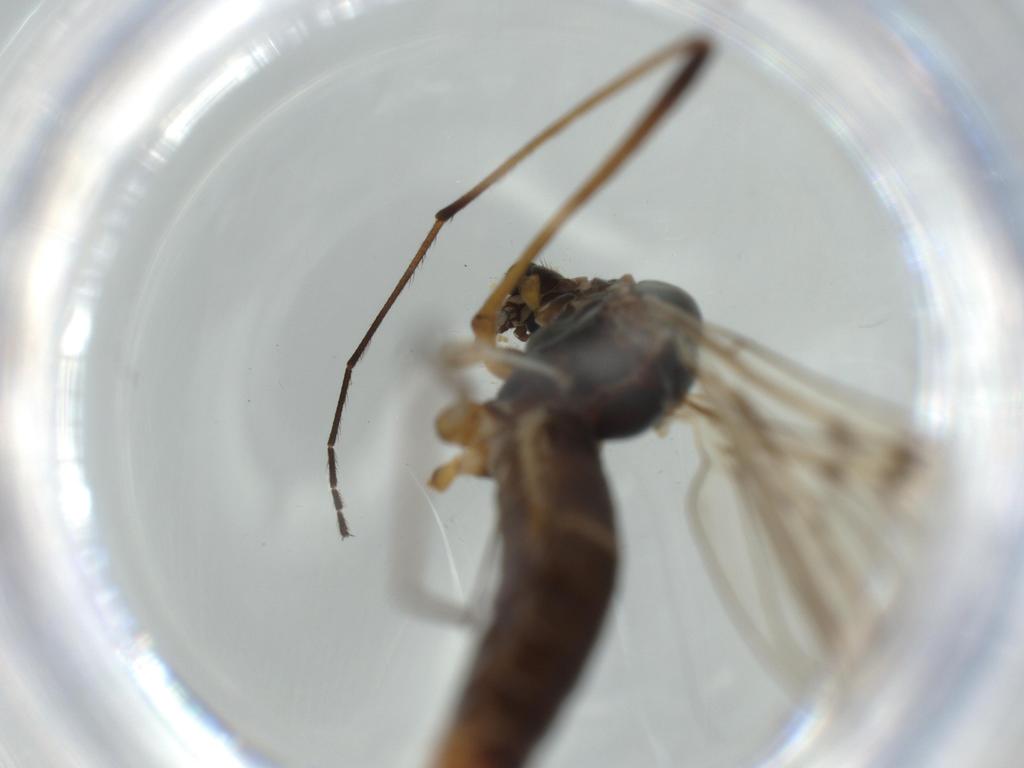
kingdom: Animalia
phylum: Arthropoda
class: Insecta
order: Diptera
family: Limoniidae
